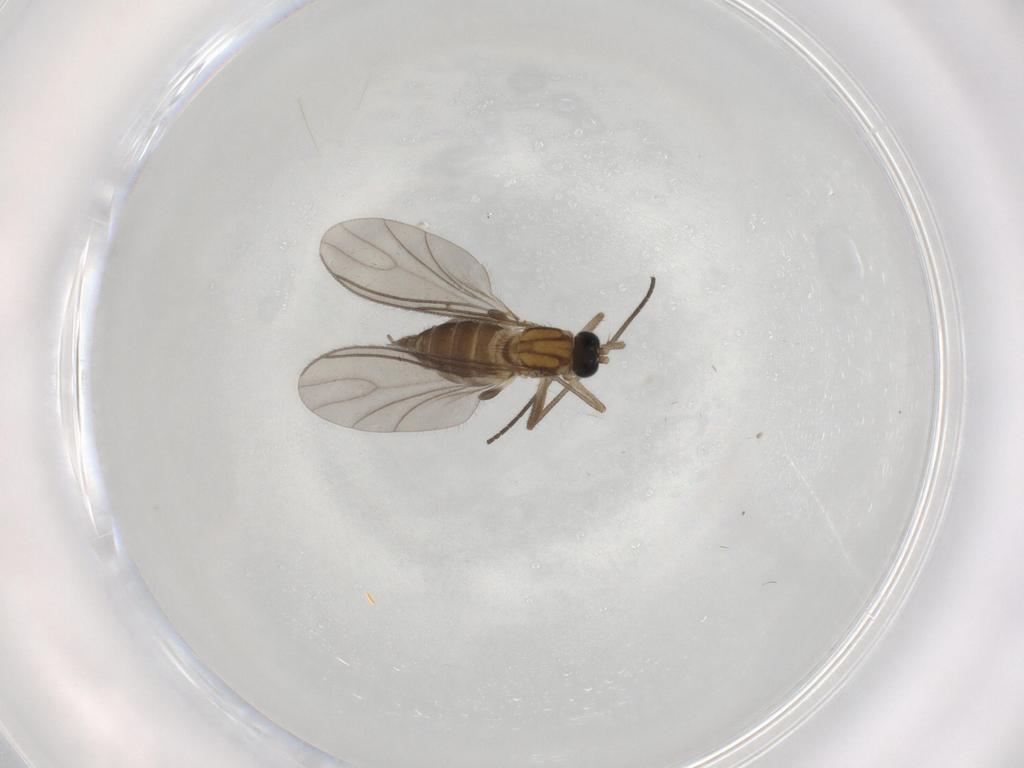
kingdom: Animalia
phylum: Arthropoda
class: Insecta
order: Diptera
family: Sciaridae
